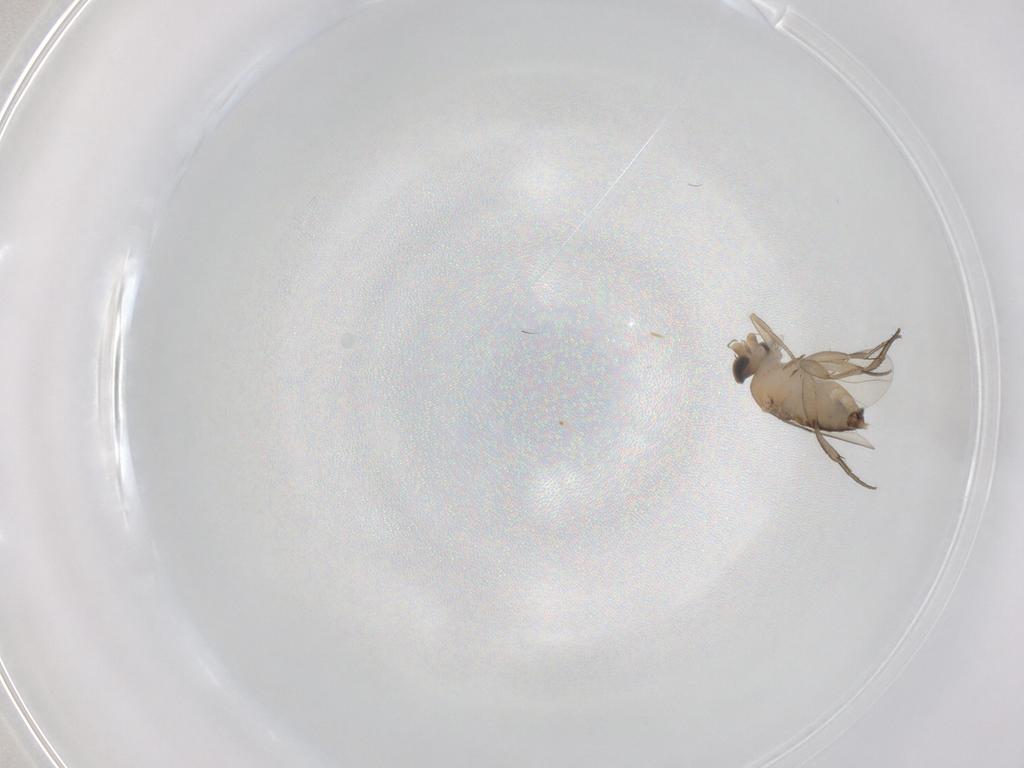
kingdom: Animalia
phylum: Arthropoda
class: Insecta
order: Diptera
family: Phoridae
